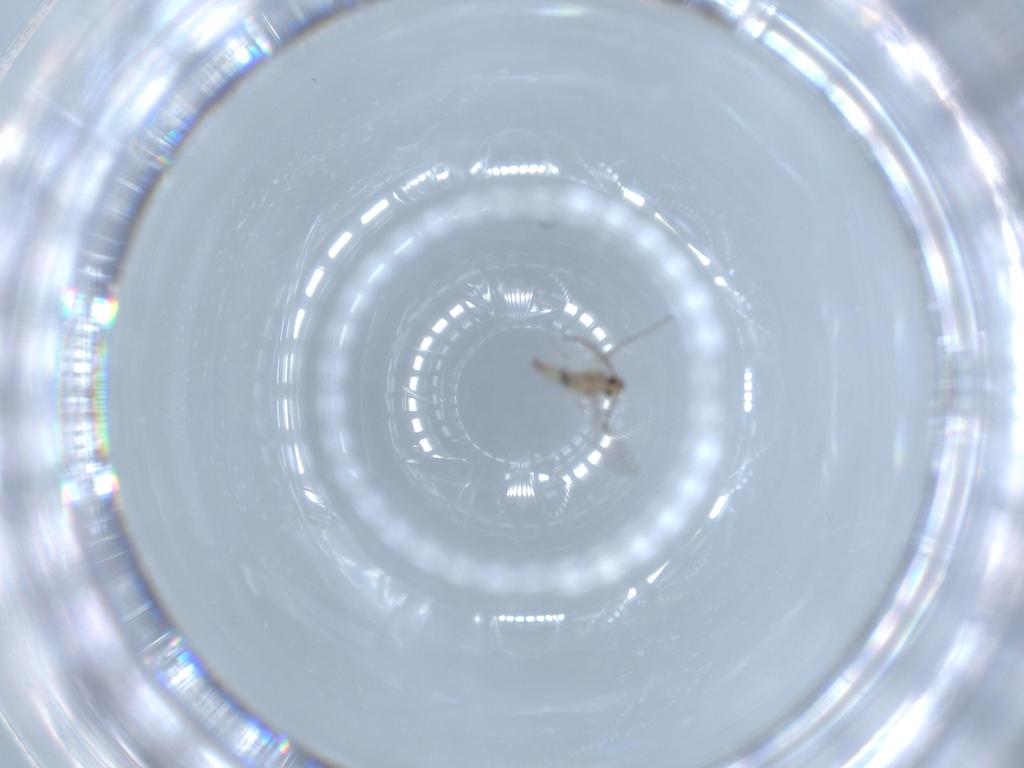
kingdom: Animalia
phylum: Arthropoda
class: Insecta
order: Diptera
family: Cecidomyiidae
